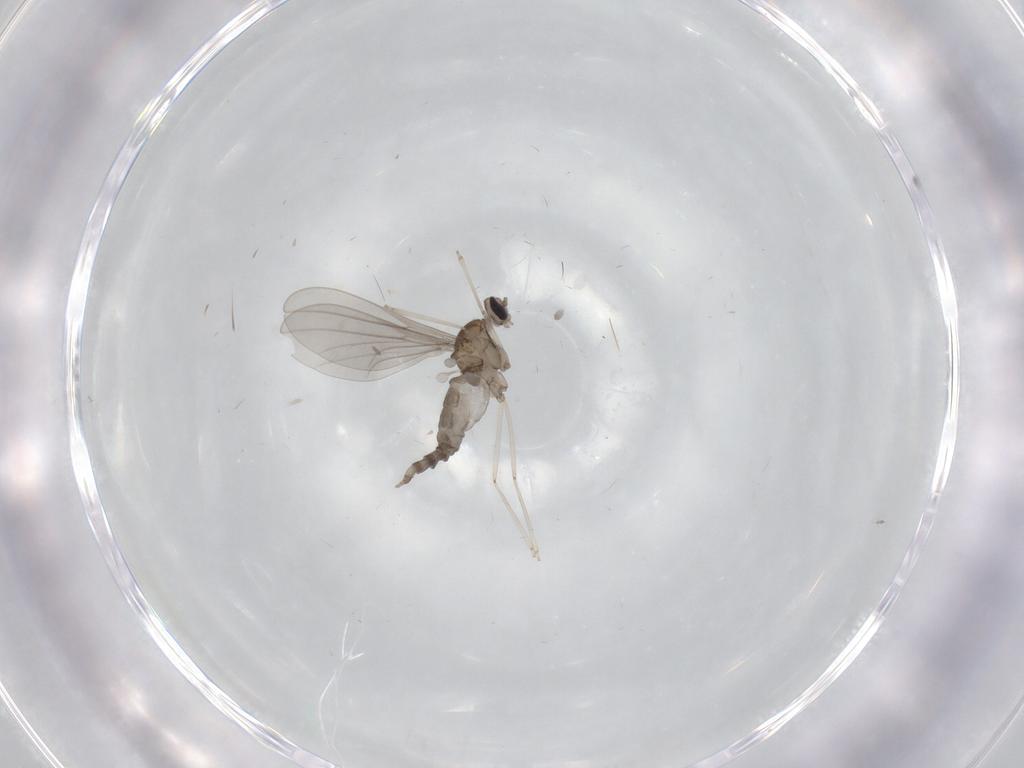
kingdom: Animalia
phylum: Arthropoda
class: Insecta
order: Diptera
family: Cecidomyiidae
